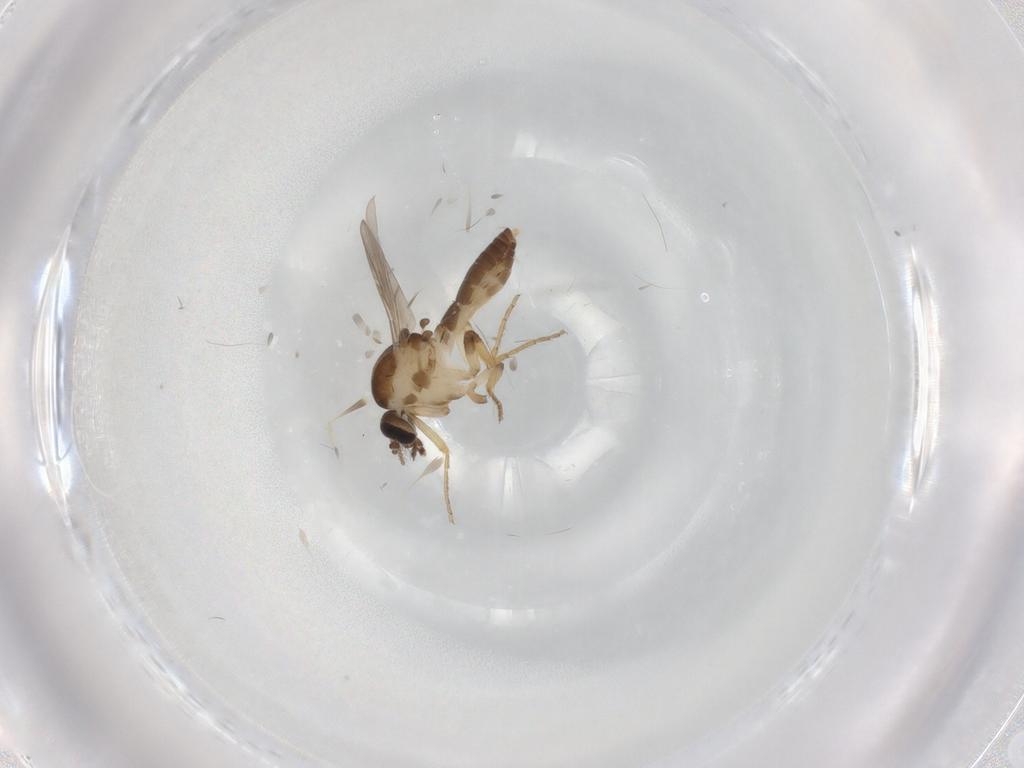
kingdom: Animalia
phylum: Arthropoda
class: Insecta
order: Diptera
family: Ceratopogonidae
